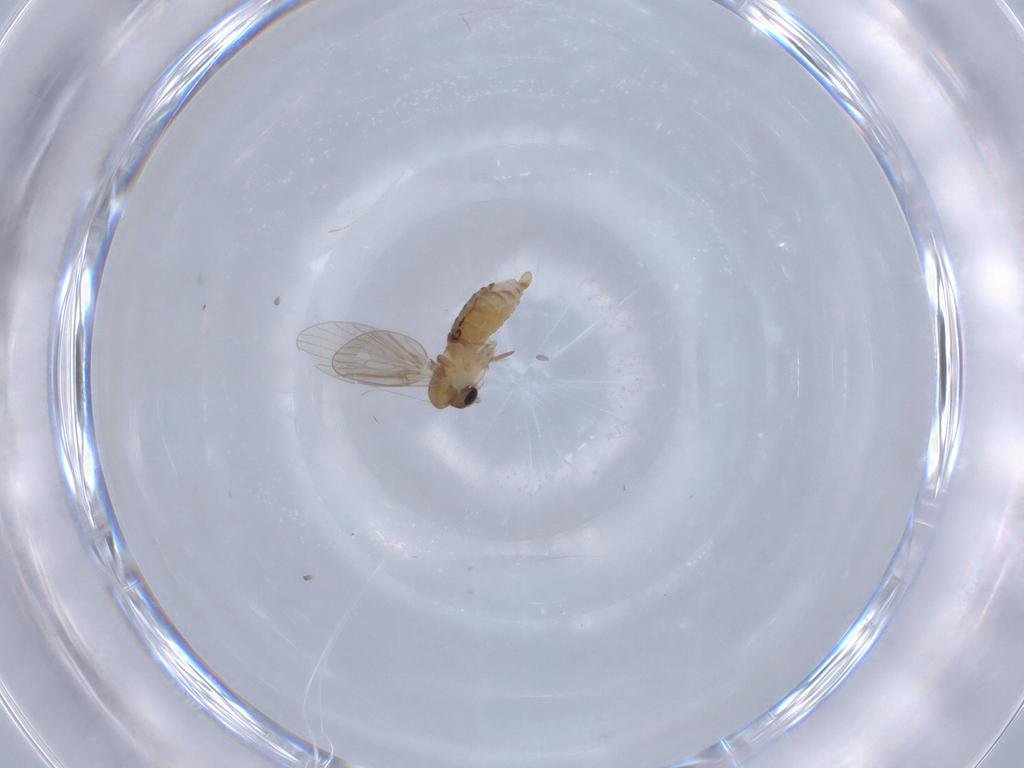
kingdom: Animalia
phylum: Arthropoda
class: Insecta
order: Diptera
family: Psychodidae
